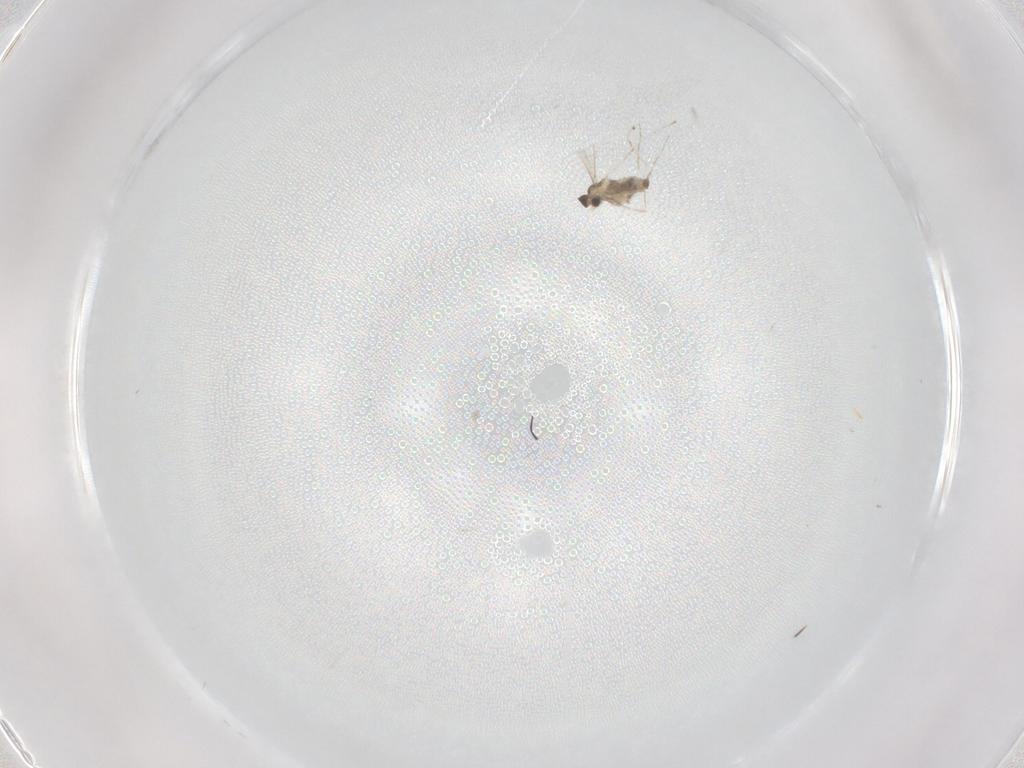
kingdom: Animalia
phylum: Arthropoda
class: Insecta
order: Diptera
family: Cecidomyiidae
